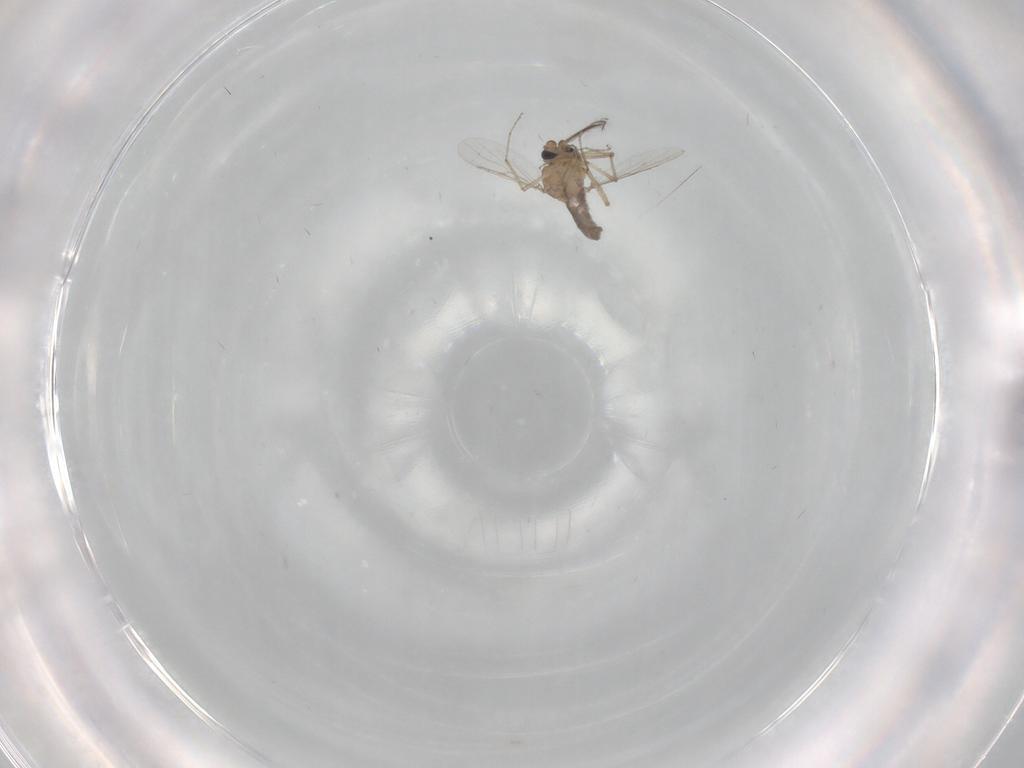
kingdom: Animalia
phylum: Arthropoda
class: Insecta
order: Diptera
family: Ceratopogonidae
